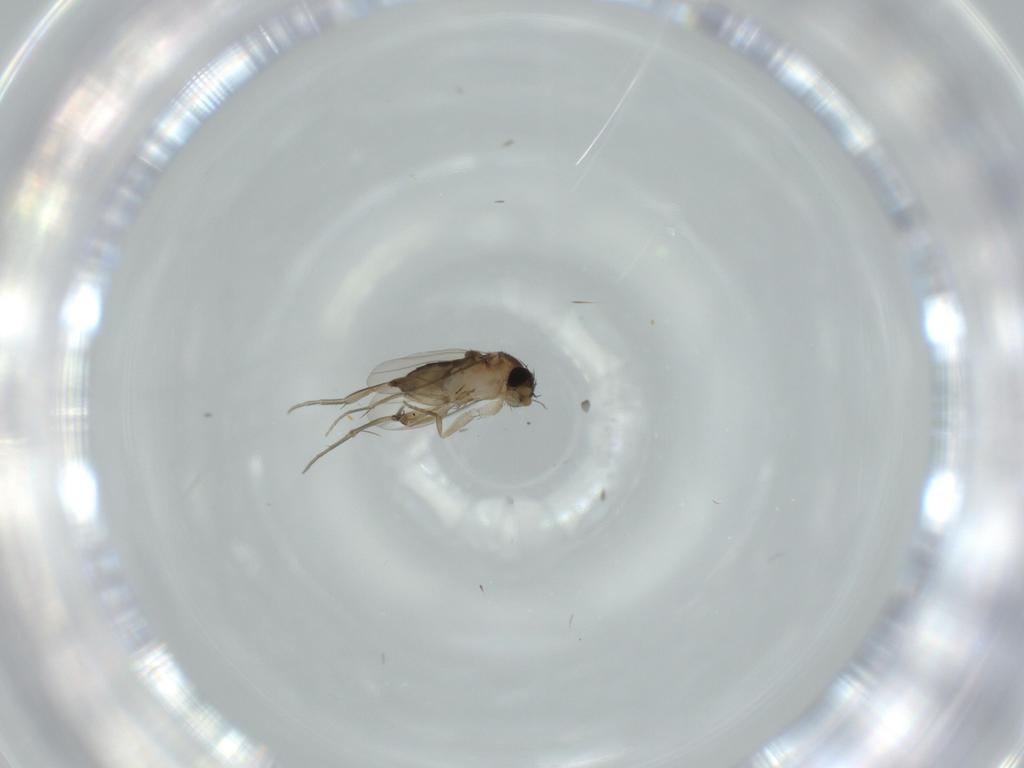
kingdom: Animalia
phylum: Arthropoda
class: Insecta
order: Diptera
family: Phoridae
